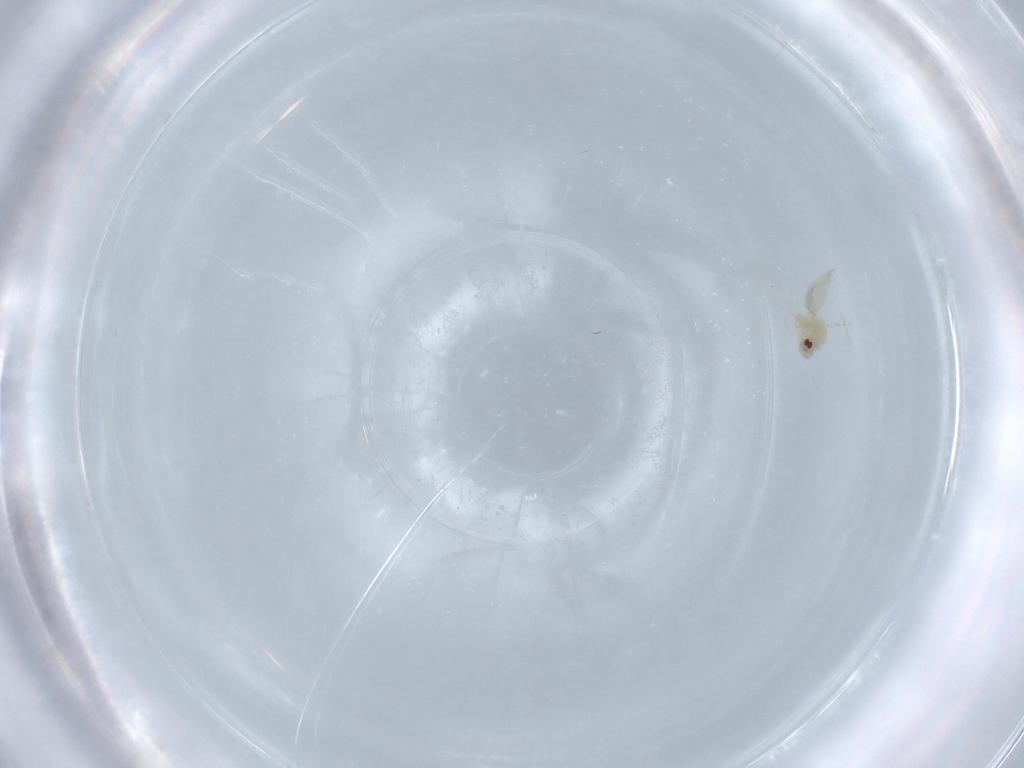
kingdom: Animalia
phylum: Arthropoda
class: Insecta
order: Hemiptera
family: Aleyrodidae
